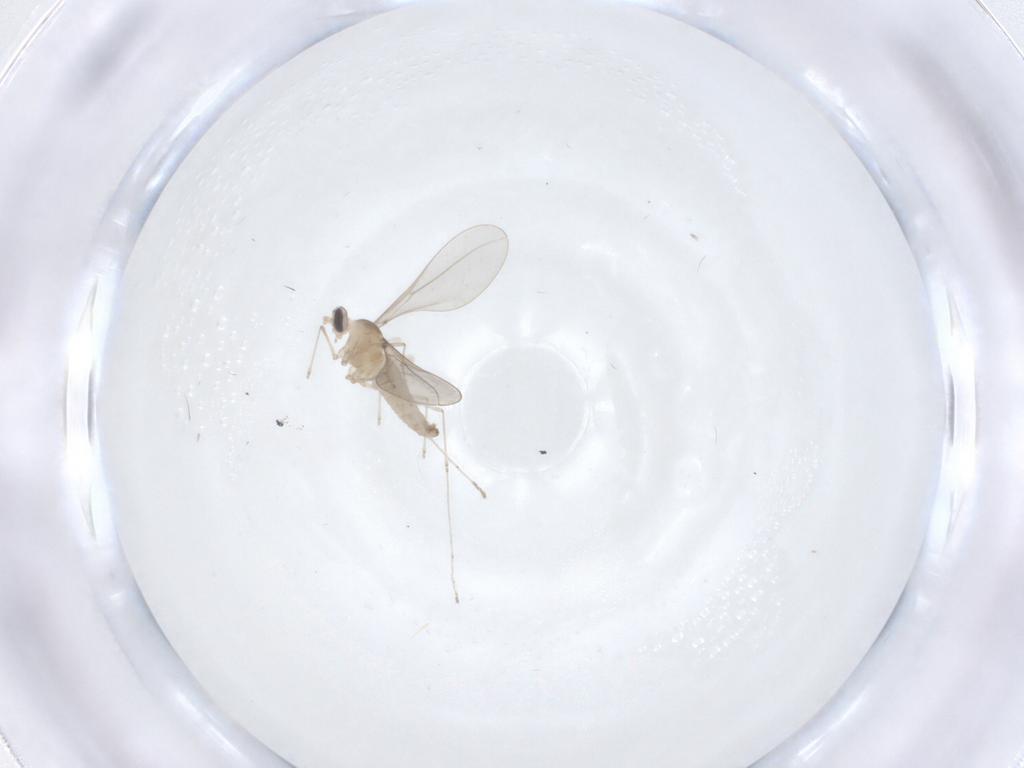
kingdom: Animalia
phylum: Arthropoda
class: Insecta
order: Diptera
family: Cecidomyiidae
